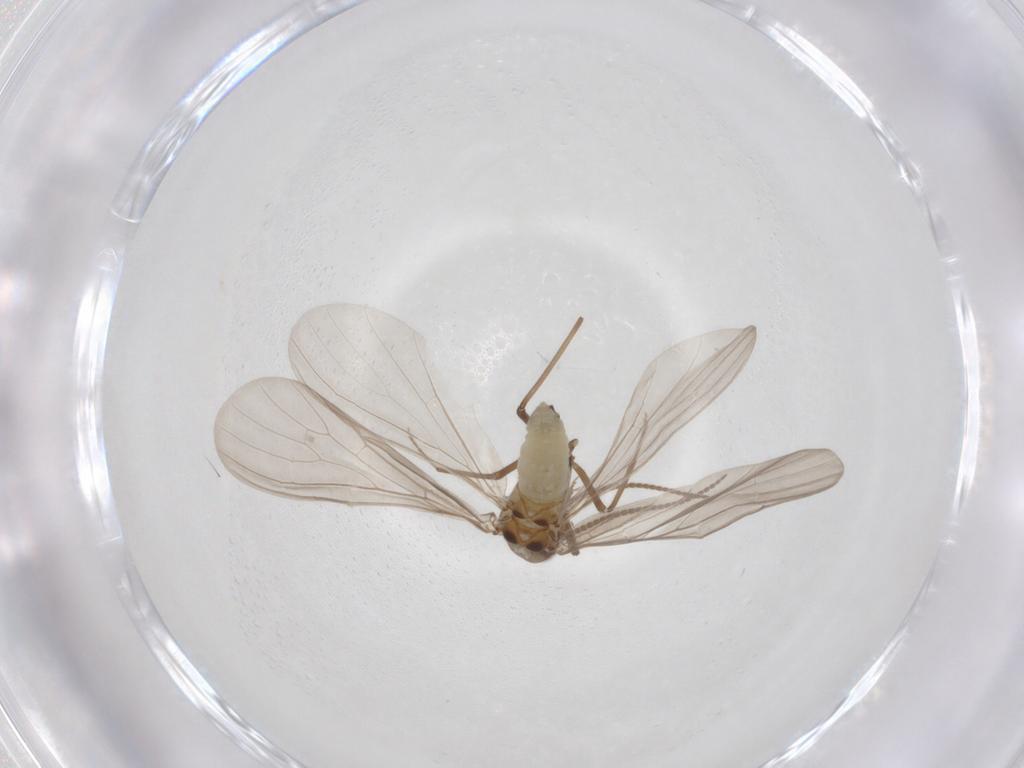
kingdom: Animalia
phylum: Arthropoda
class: Insecta
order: Neuroptera
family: Coniopterygidae
